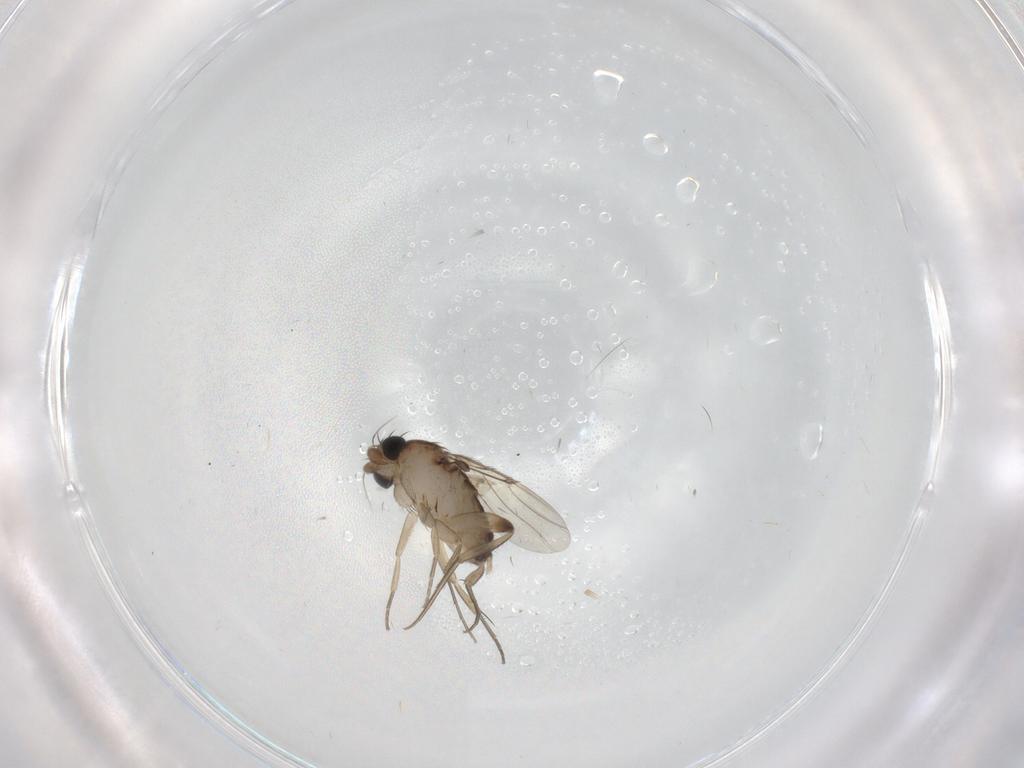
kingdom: Animalia
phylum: Arthropoda
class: Insecta
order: Diptera
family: Phoridae
